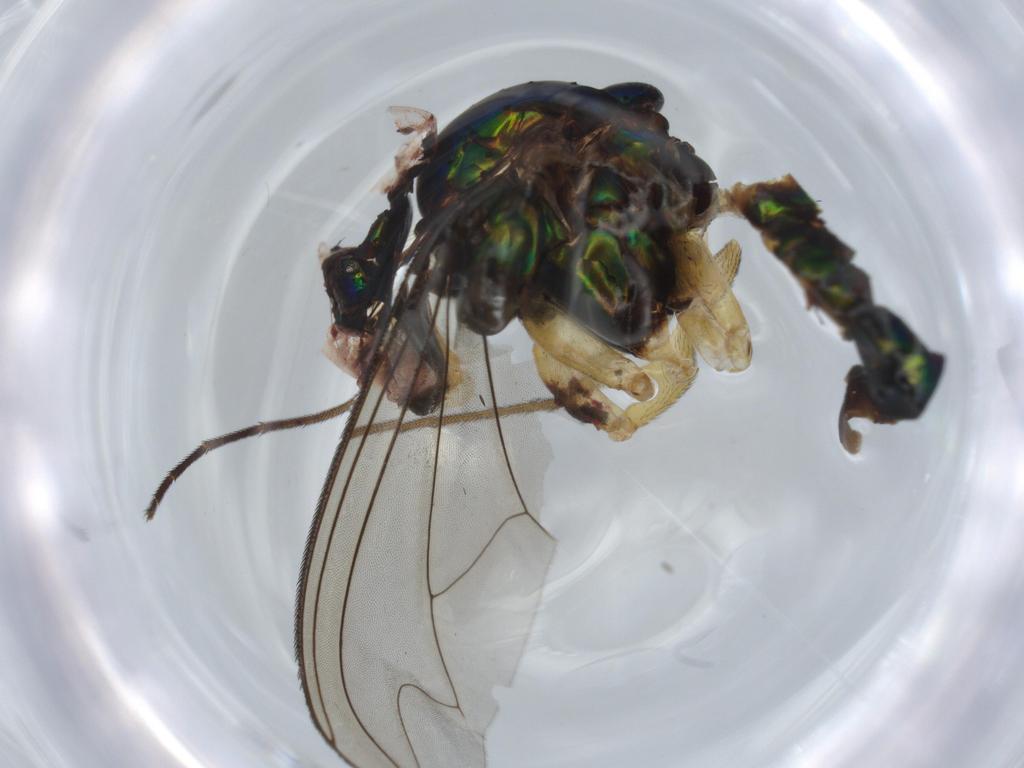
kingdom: Animalia
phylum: Arthropoda
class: Insecta
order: Diptera
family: Dolichopodidae
